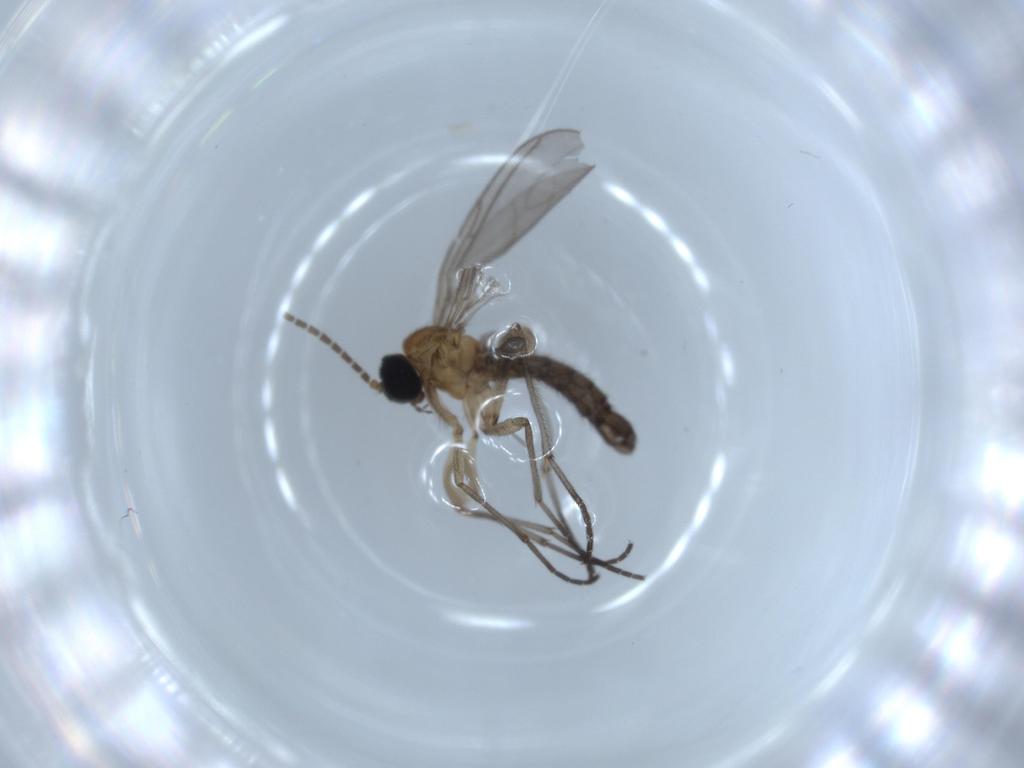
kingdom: Animalia
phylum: Arthropoda
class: Insecta
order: Diptera
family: Sciaridae
